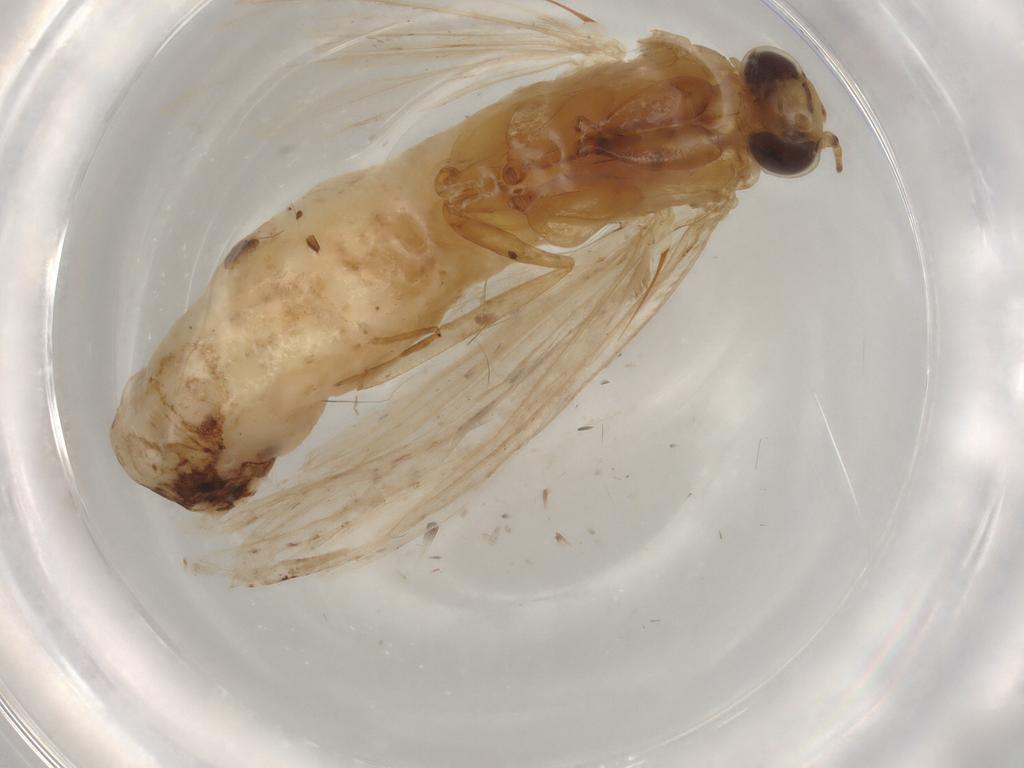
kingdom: Animalia
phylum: Arthropoda
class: Insecta
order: Lepidoptera
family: Pyralidae
